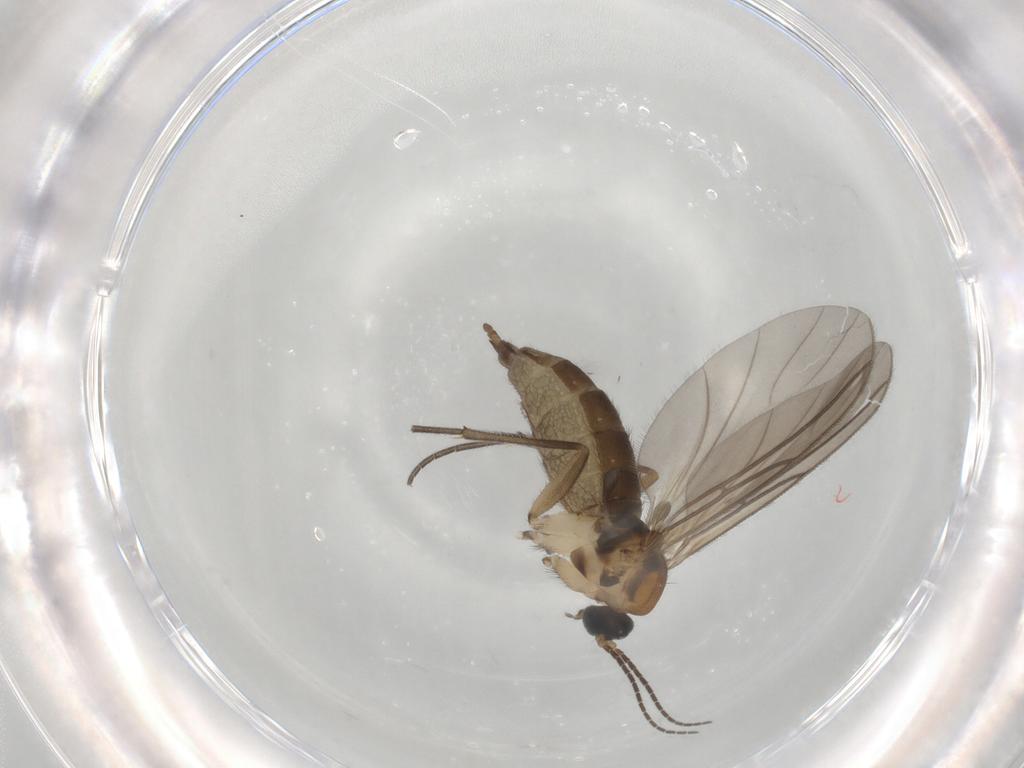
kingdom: Animalia
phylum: Arthropoda
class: Insecta
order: Diptera
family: Sciaridae
